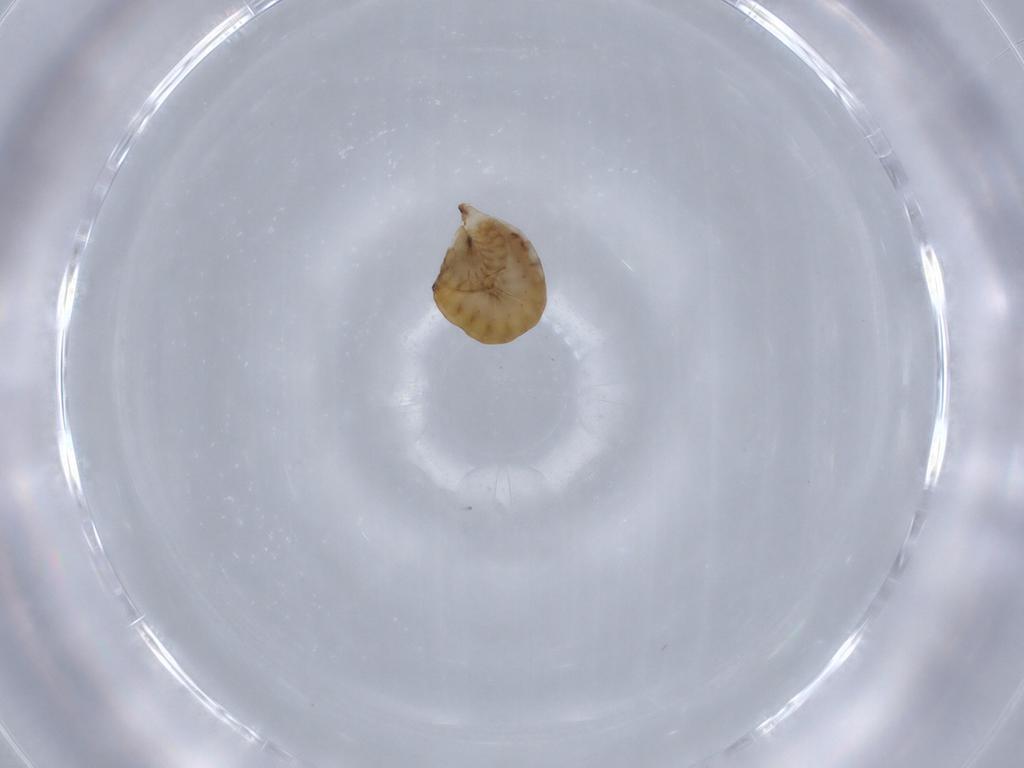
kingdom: Animalia
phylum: Arthropoda
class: Insecta
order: Hymenoptera
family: Dryinidae
